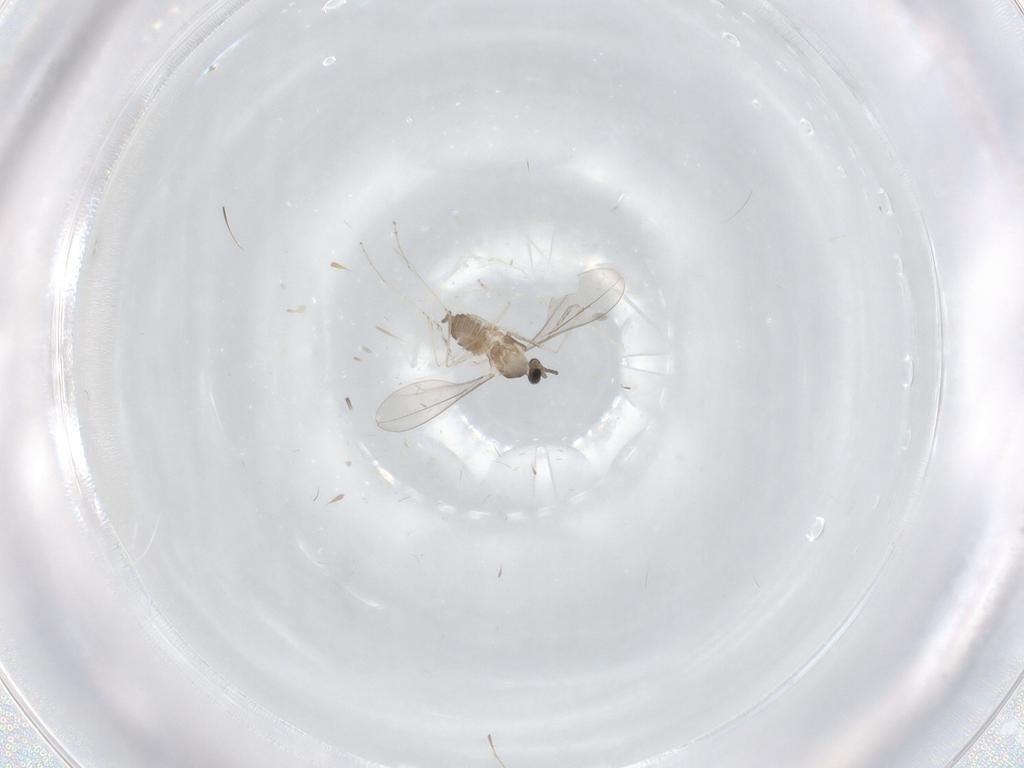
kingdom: Animalia
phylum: Arthropoda
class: Insecta
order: Diptera
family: Cecidomyiidae
